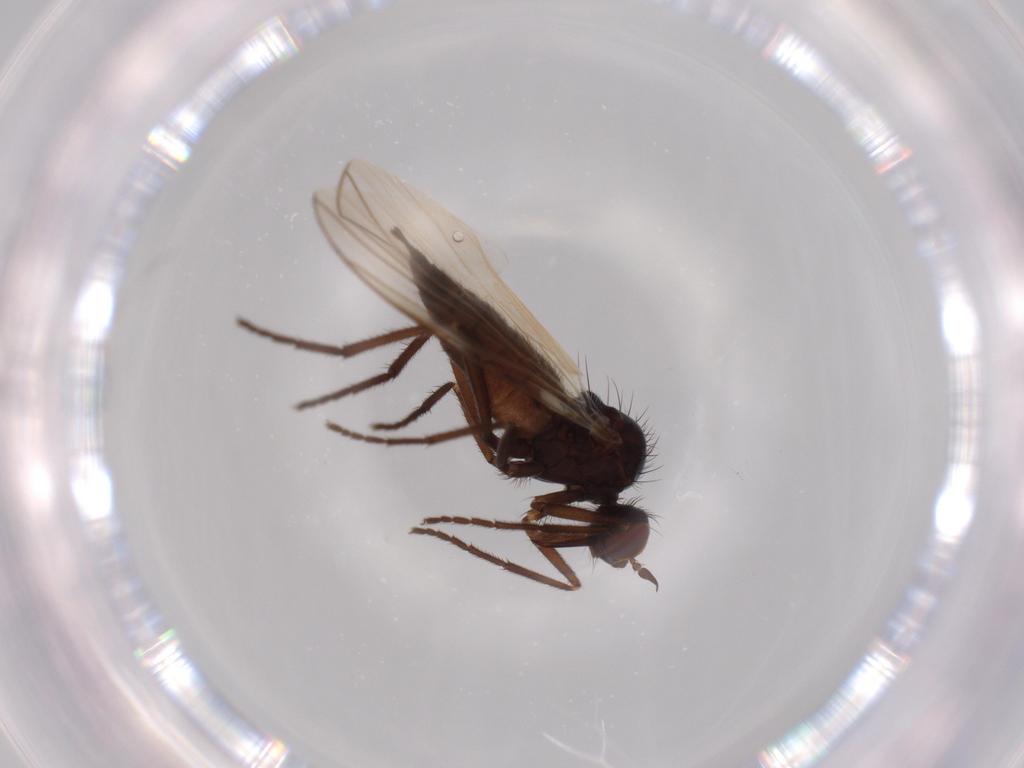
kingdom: Animalia
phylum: Arthropoda
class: Insecta
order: Diptera
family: Empididae
